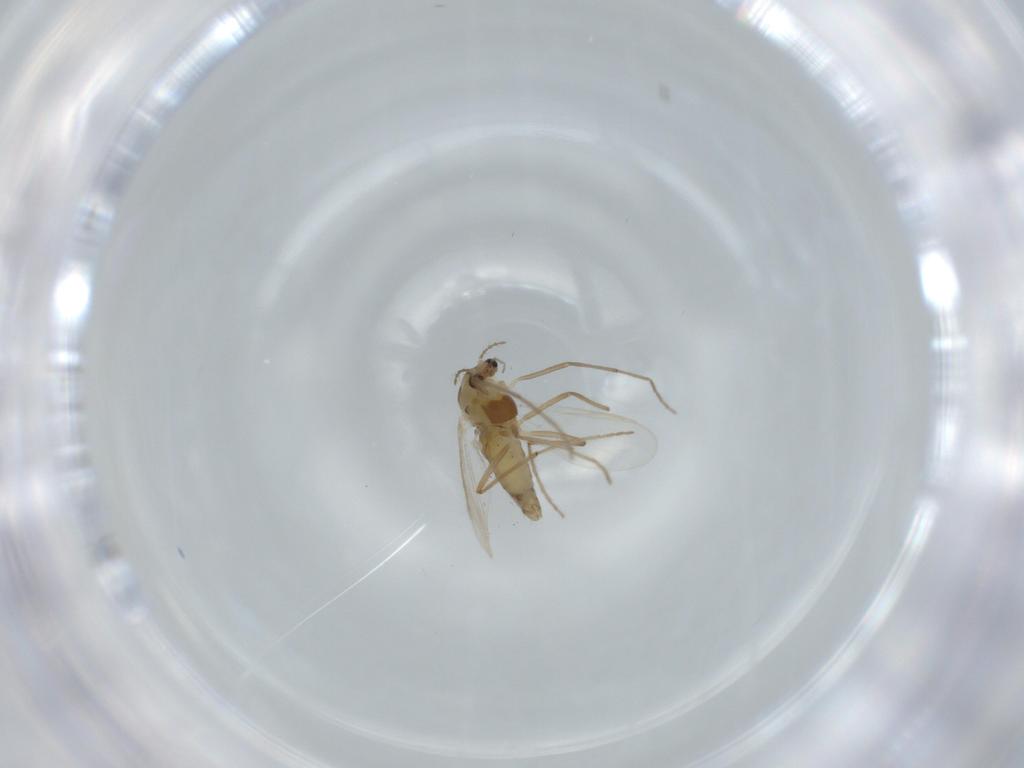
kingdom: Animalia
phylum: Arthropoda
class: Insecta
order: Diptera
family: Chironomidae
